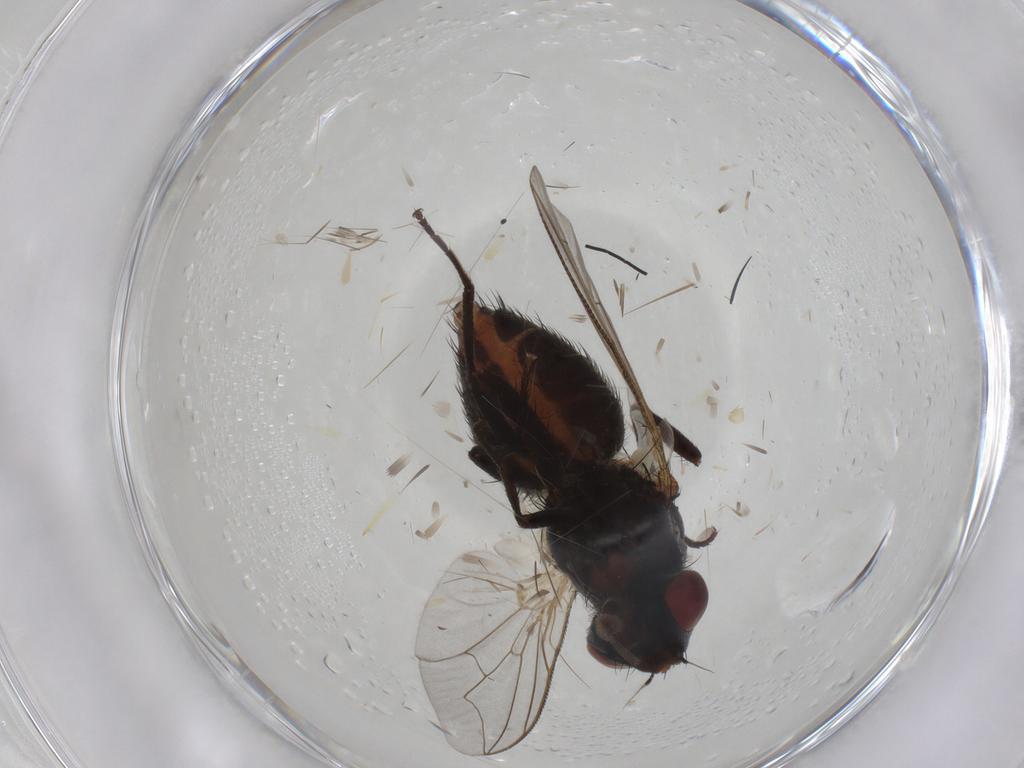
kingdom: Animalia
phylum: Arthropoda
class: Insecta
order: Diptera
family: Sarcophagidae
